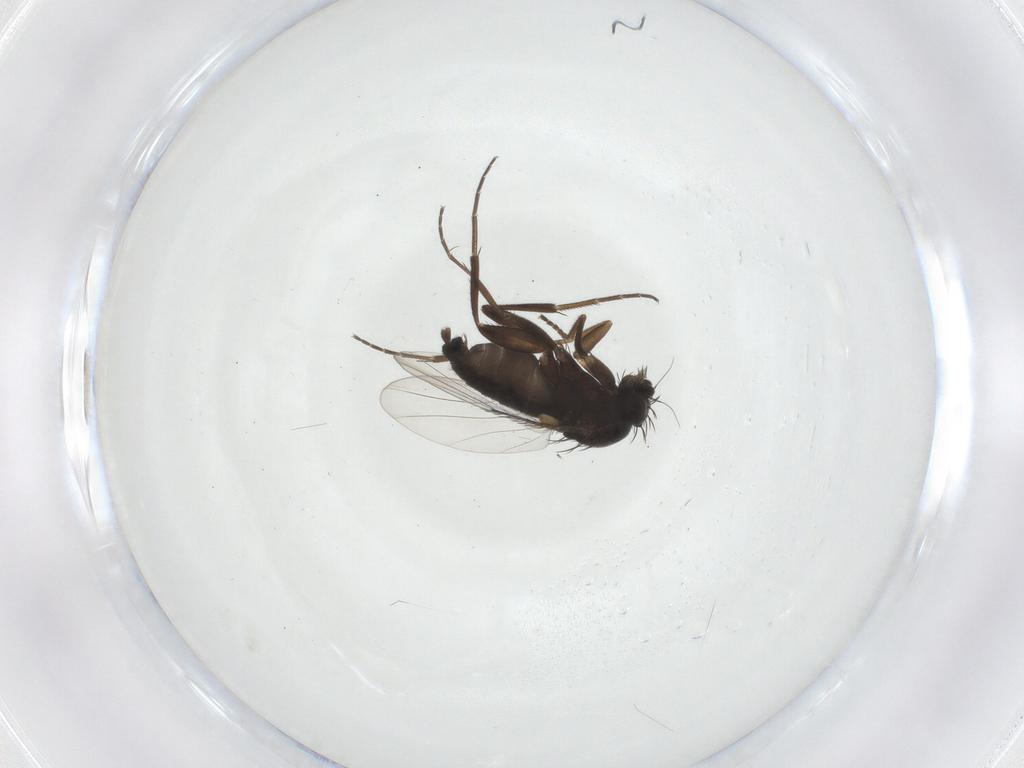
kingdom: Animalia
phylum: Arthropoda
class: Insecta
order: Diptera
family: Phoridae
